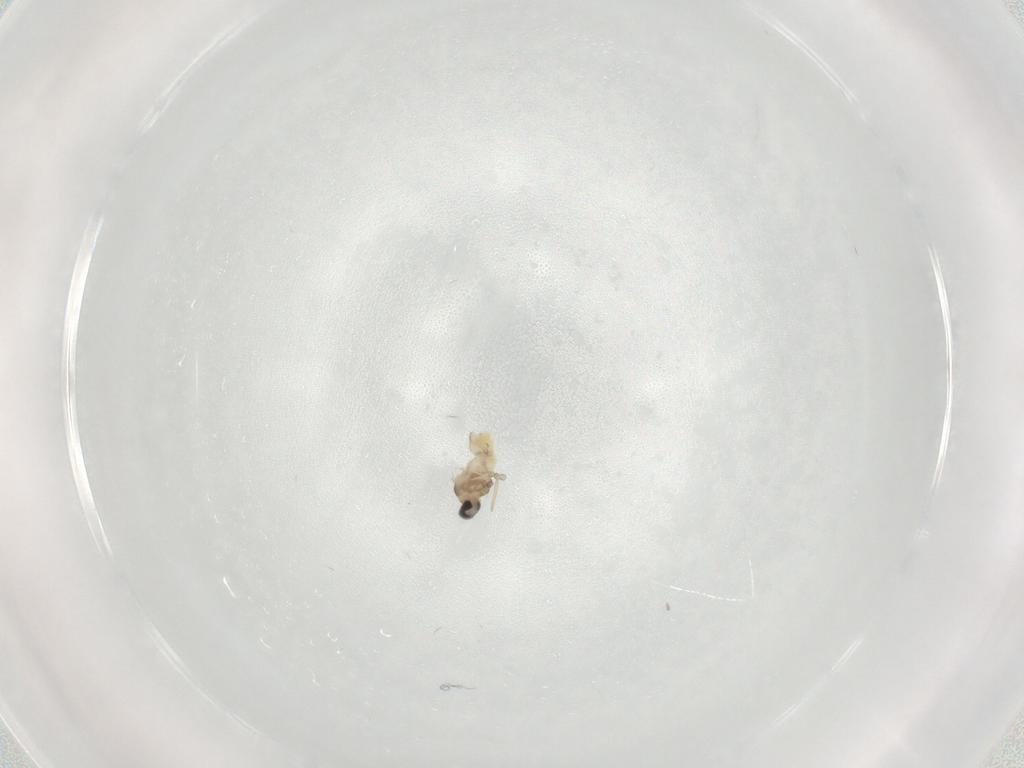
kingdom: Animalia
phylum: Arthropoda
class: Insecta
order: Diptera
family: Cecidomyiidae
